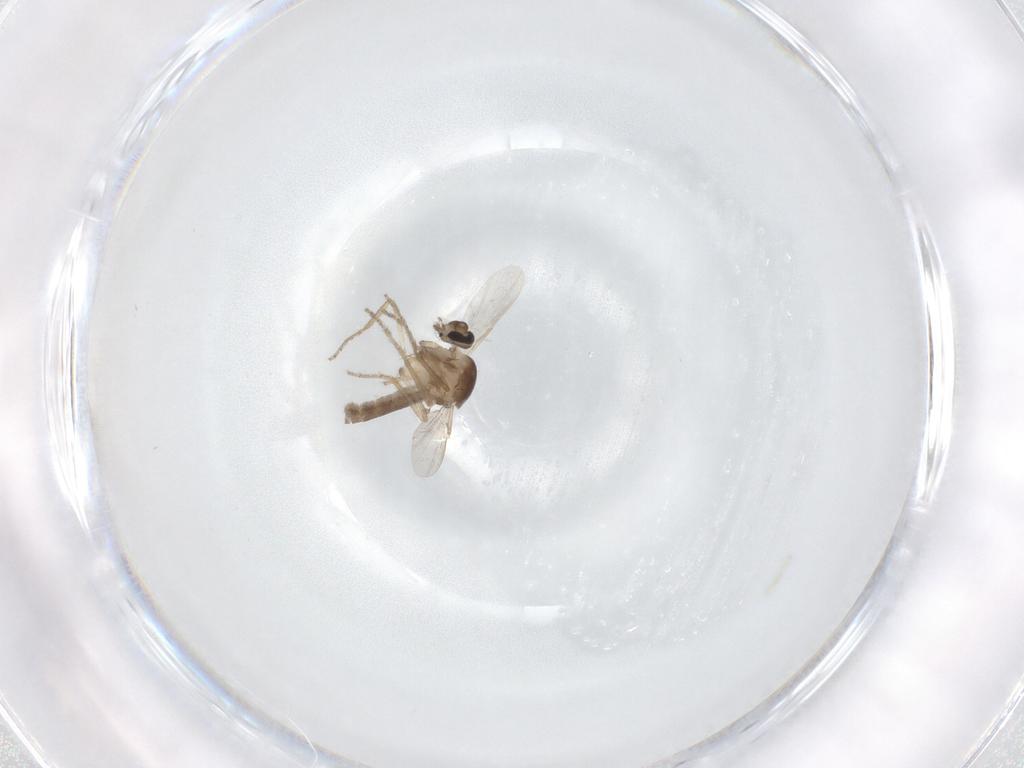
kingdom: Animalia
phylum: Arthropoda
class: Insecta
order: Diptera
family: Ceratopogonidae
